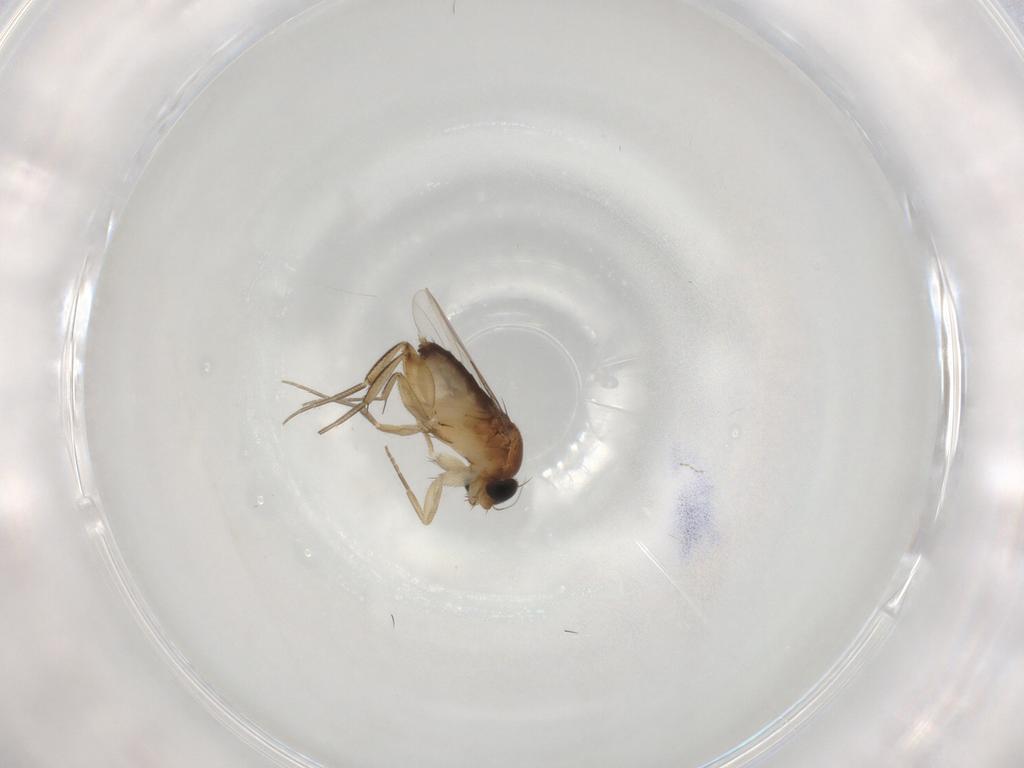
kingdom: Animalia
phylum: Arthropoda
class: Insecta
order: Diptera
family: Phoridae
